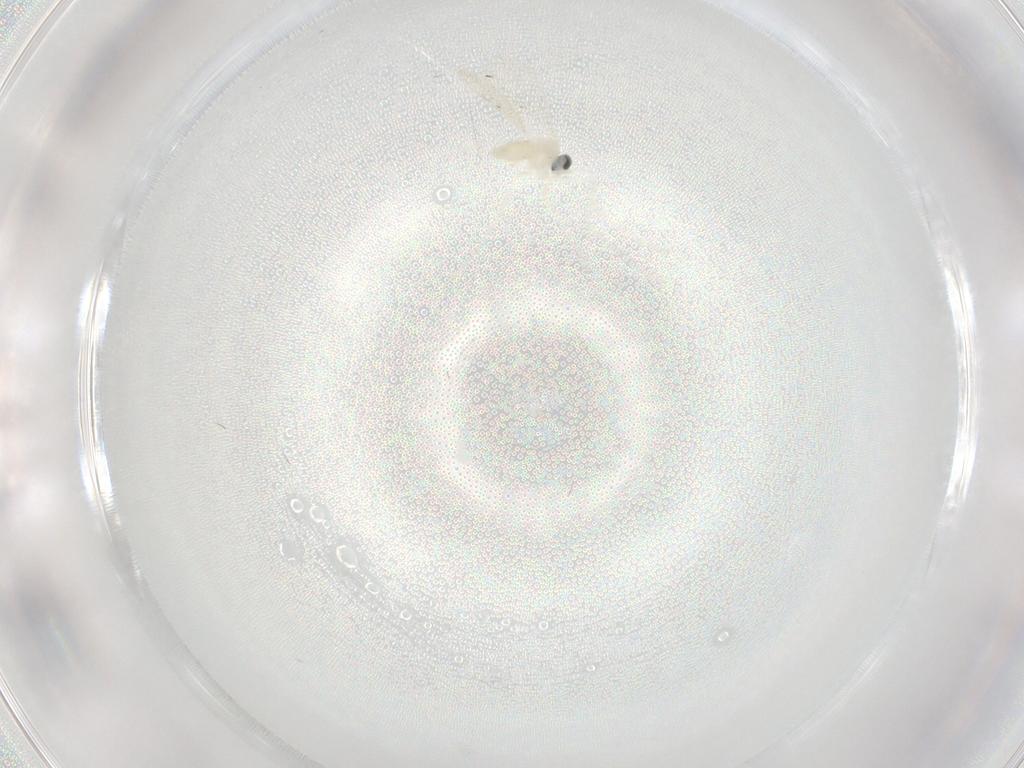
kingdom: Animalia
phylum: Arthropoda
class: Insecta
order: Diptera
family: Cecidomyiidae
